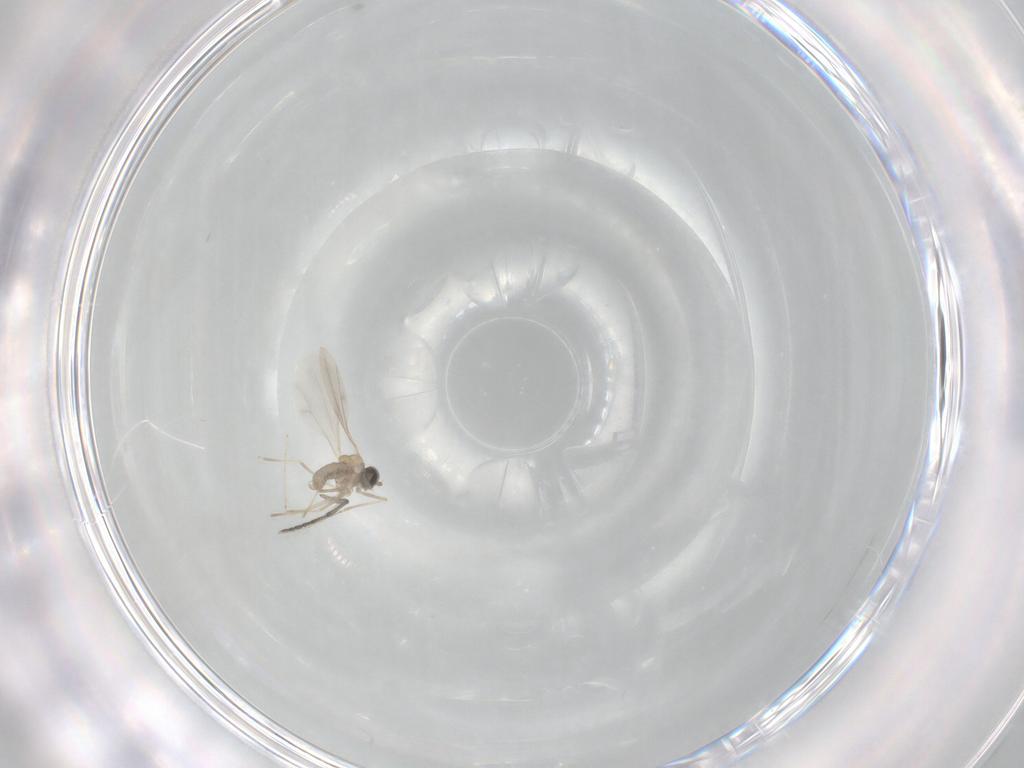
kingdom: Animalia
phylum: Arthropoda
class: Insecta
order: Diptera
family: Cecidomyiidae
